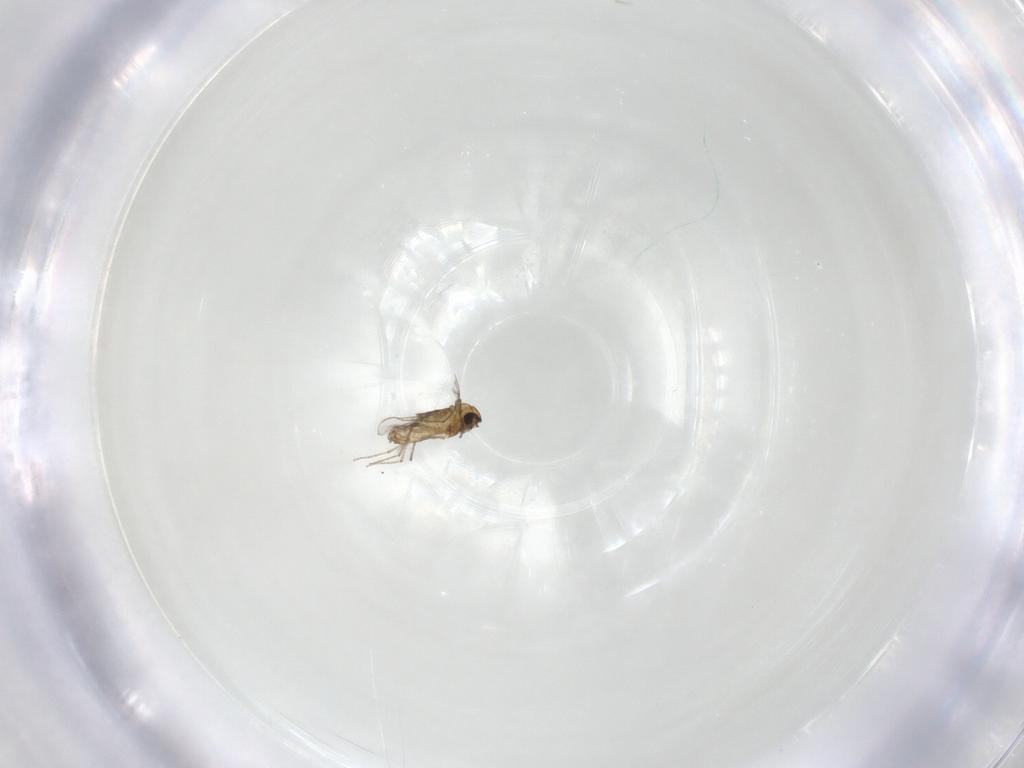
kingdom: Animalia
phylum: Arthropoda
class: Insecta
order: Diptera
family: Chironomidae
